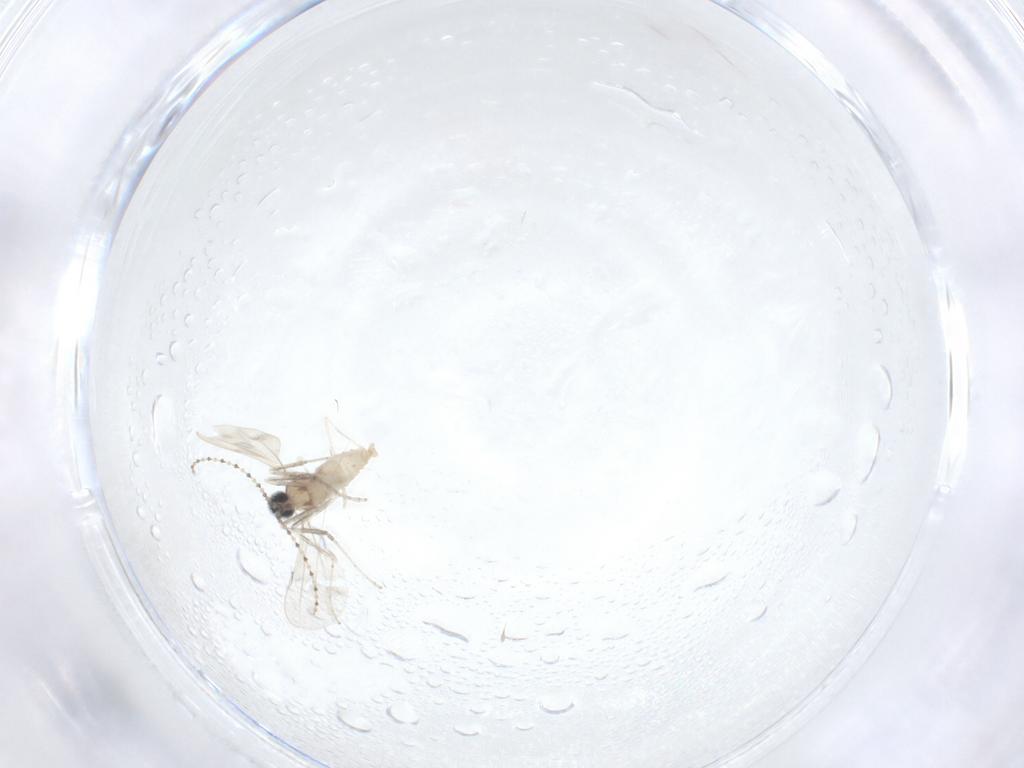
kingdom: Animalia
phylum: Arthropoda
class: Insecta
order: Diptera
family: Cecidomyiidae
